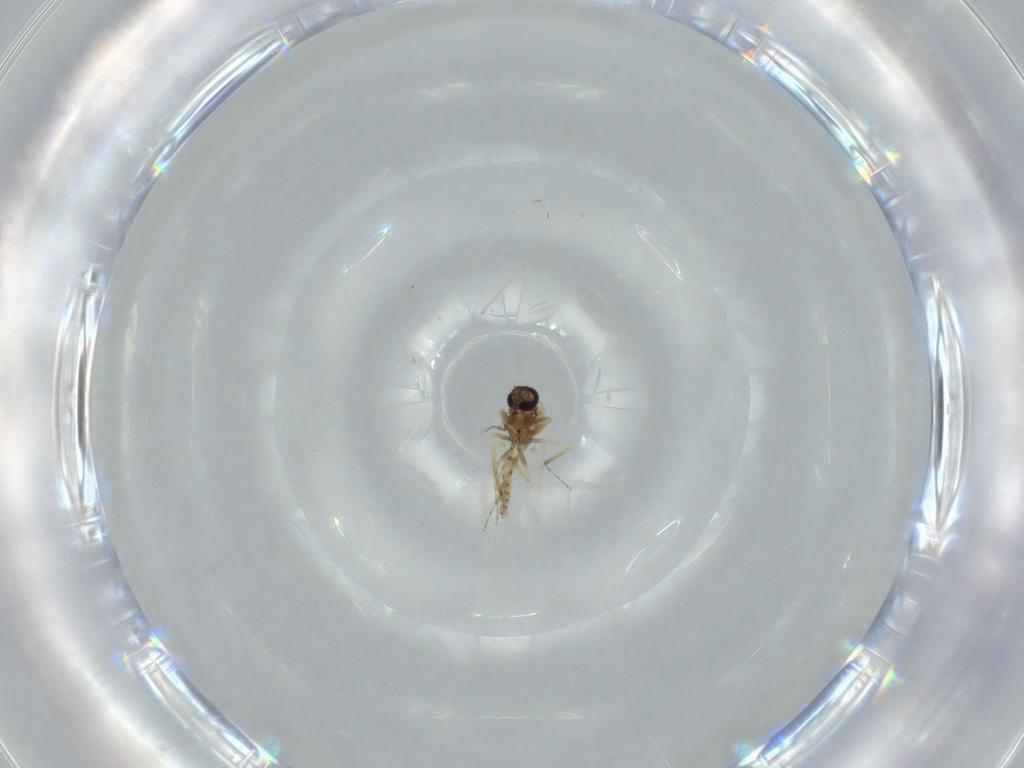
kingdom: Animalia
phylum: Arthropoda
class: Insecta
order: Diptera
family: Ceratopogonidae
